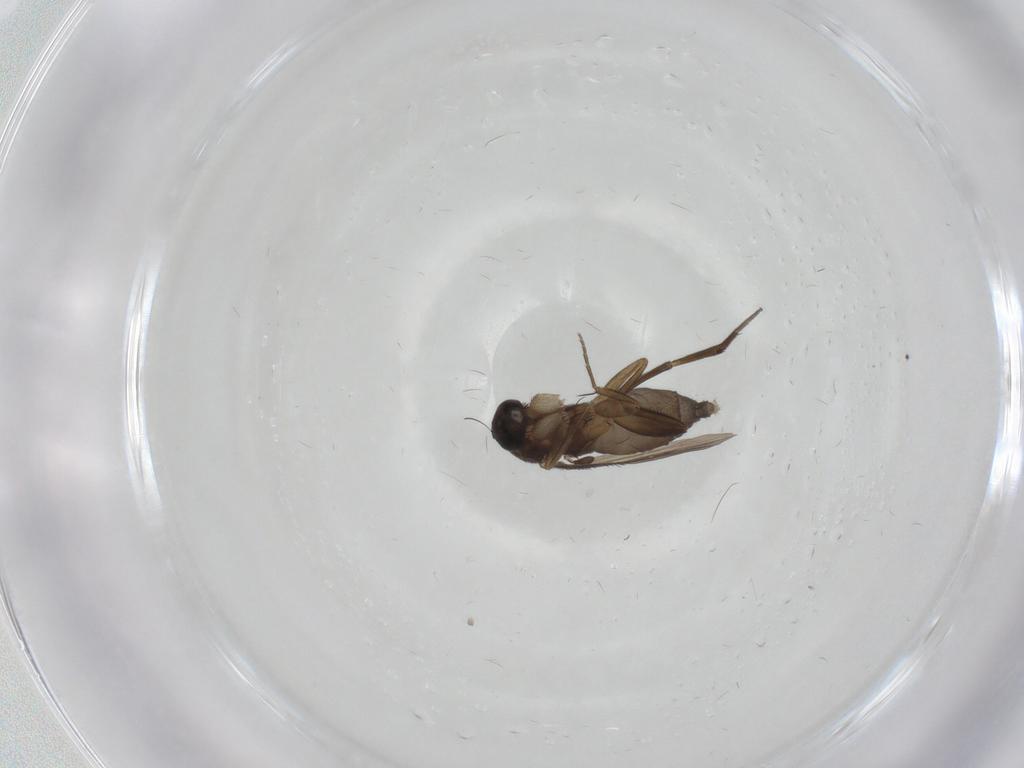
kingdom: Animalia
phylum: Arthropoda
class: Insecta
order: Diptera
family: Phoridae
